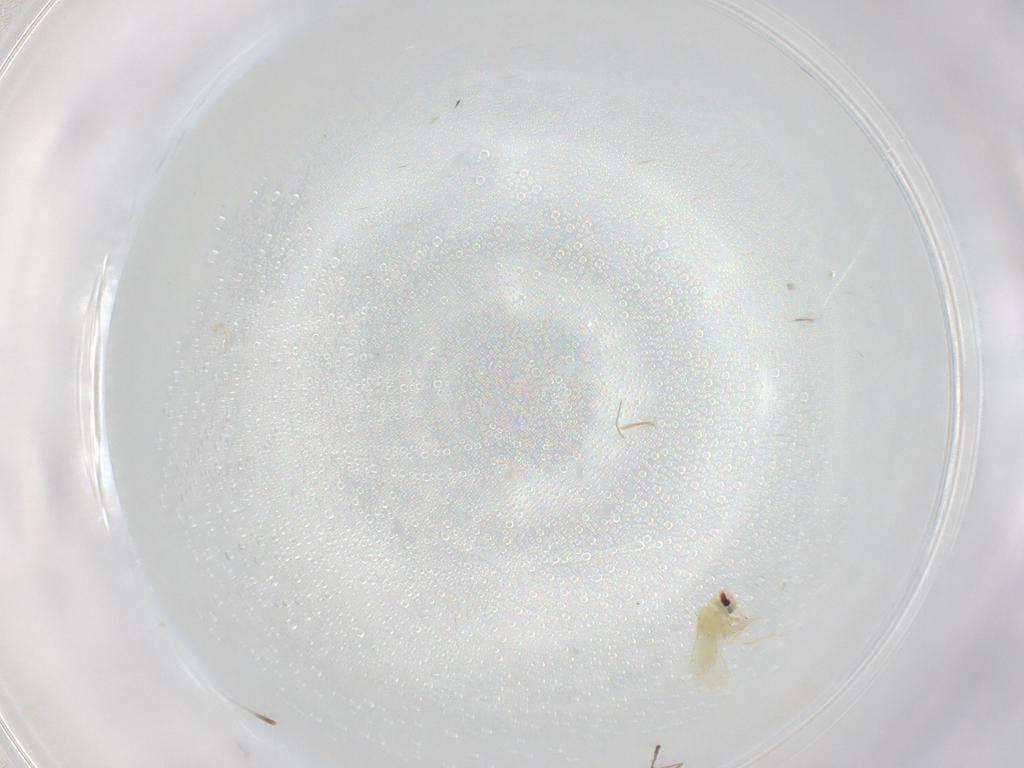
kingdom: Animalia
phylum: Arthropoda
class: Insecta
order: Diptera
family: Cecidomyiidae
